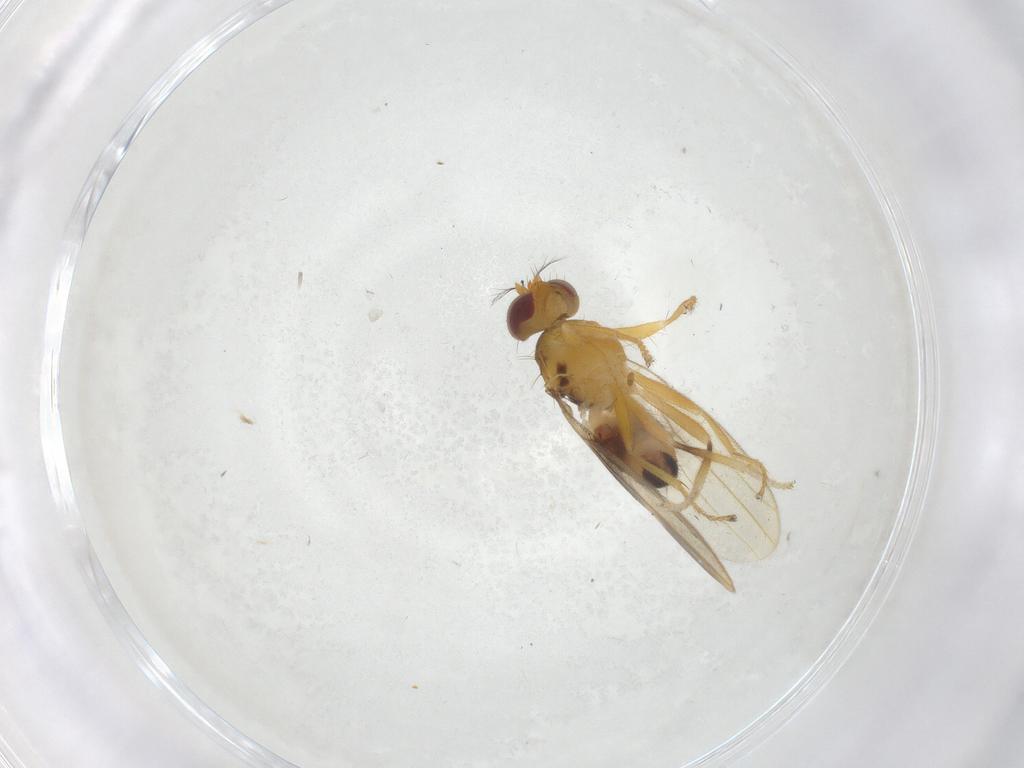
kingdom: Animalia
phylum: Arthropoda
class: Insecta
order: Diptera
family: Periscelididae
